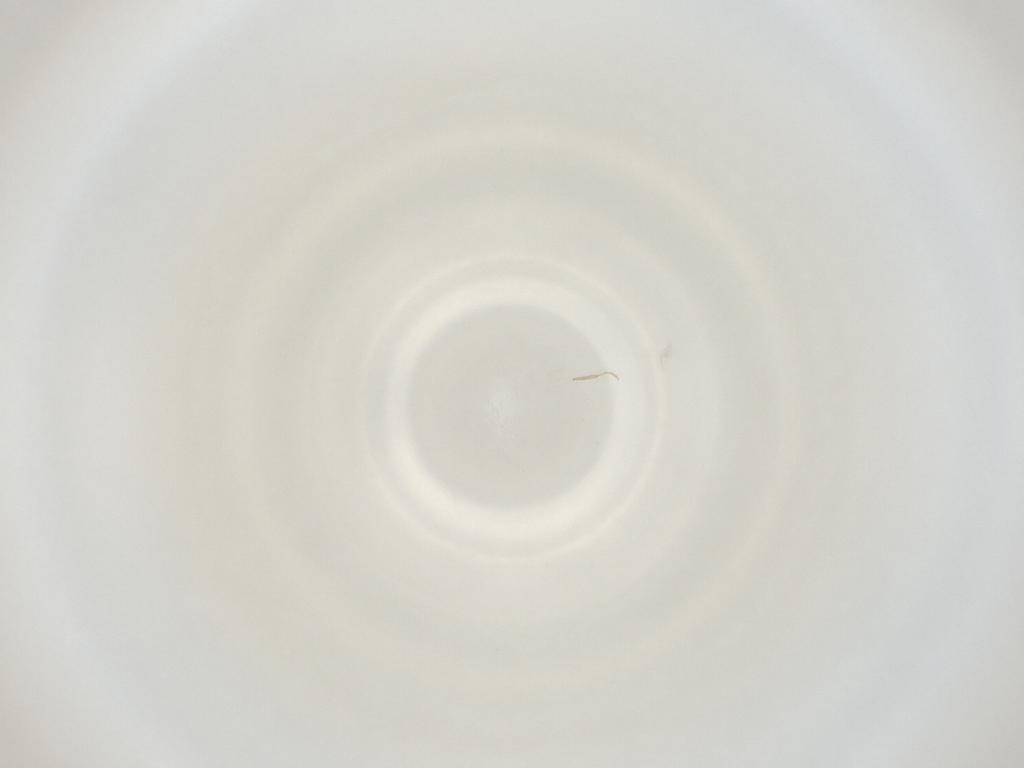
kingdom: Animalia
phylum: Arthropoda
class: Insecta
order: Diptera
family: Cecidomyiidae
